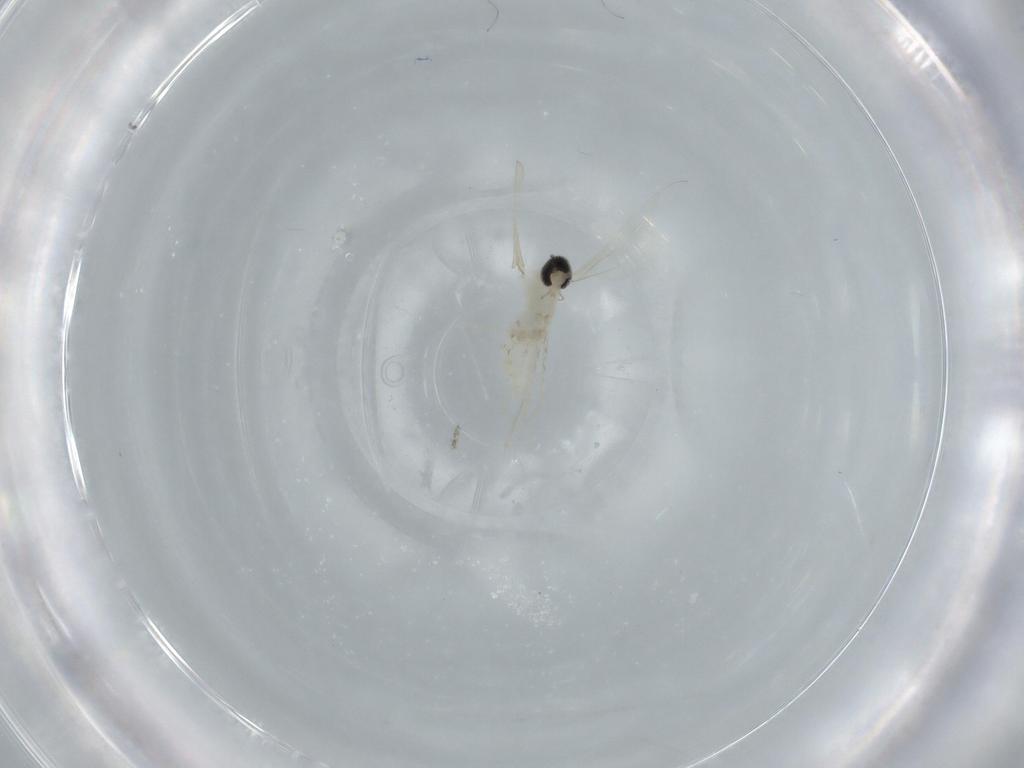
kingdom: Animalia
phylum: Arthropoda
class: Insecta
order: Diptera
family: Cecidomyiidae
